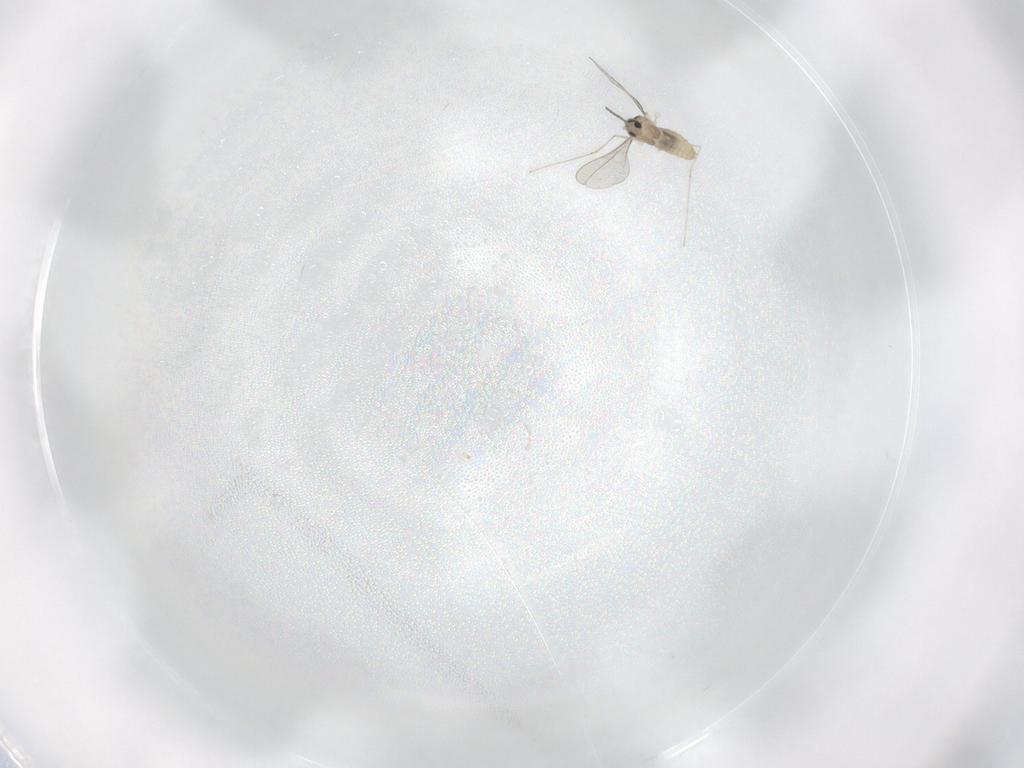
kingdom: Animalia
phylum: Arthropoda
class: Insecta
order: Diptera
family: Cecidomyiidae
